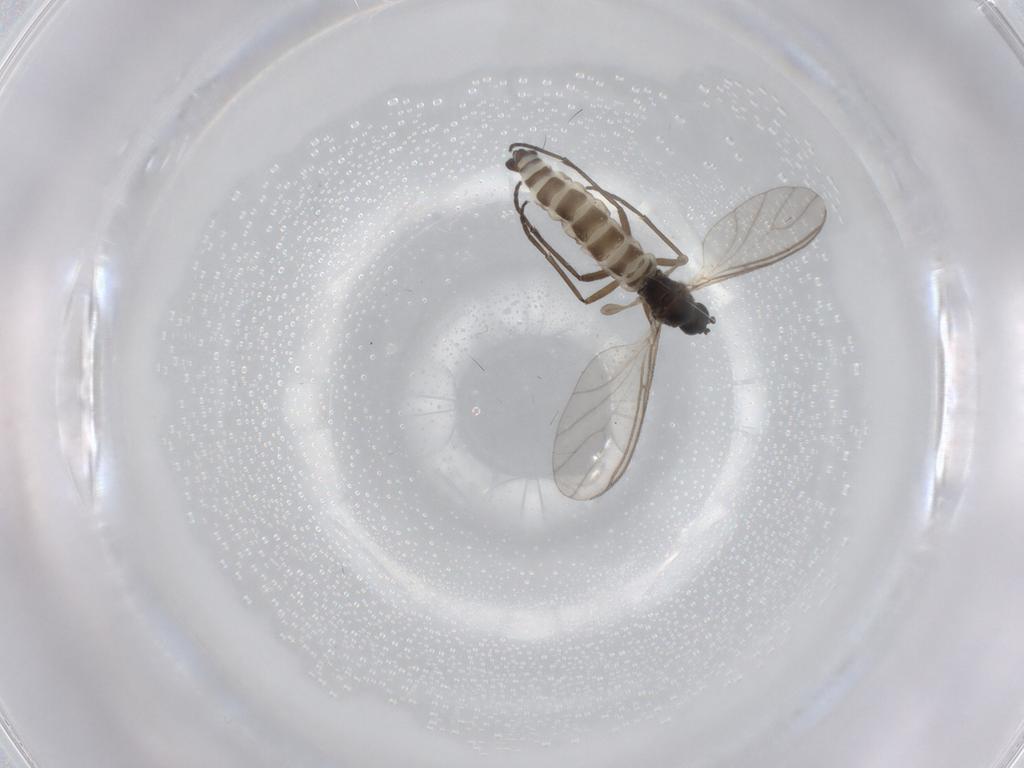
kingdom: Animalia
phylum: Arthropoda
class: Insecta
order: Diptera
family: Sciaridae
